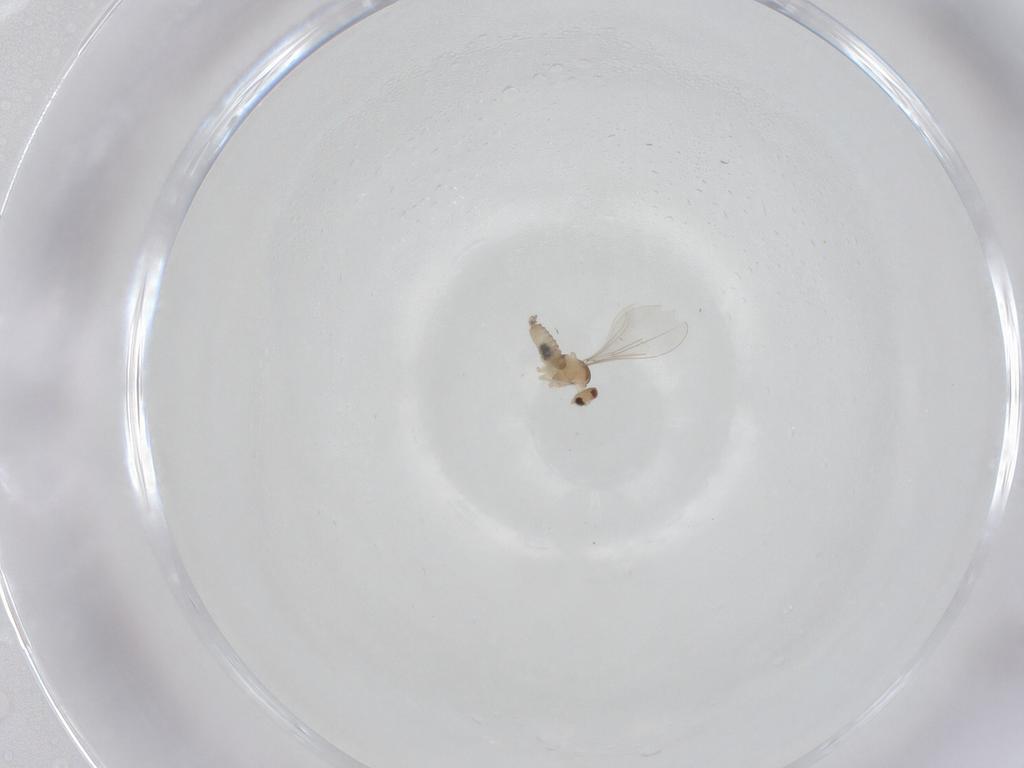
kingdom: Animalia
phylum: Arthropoda
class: Insecta
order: Diptera
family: Cecidomyiidae
